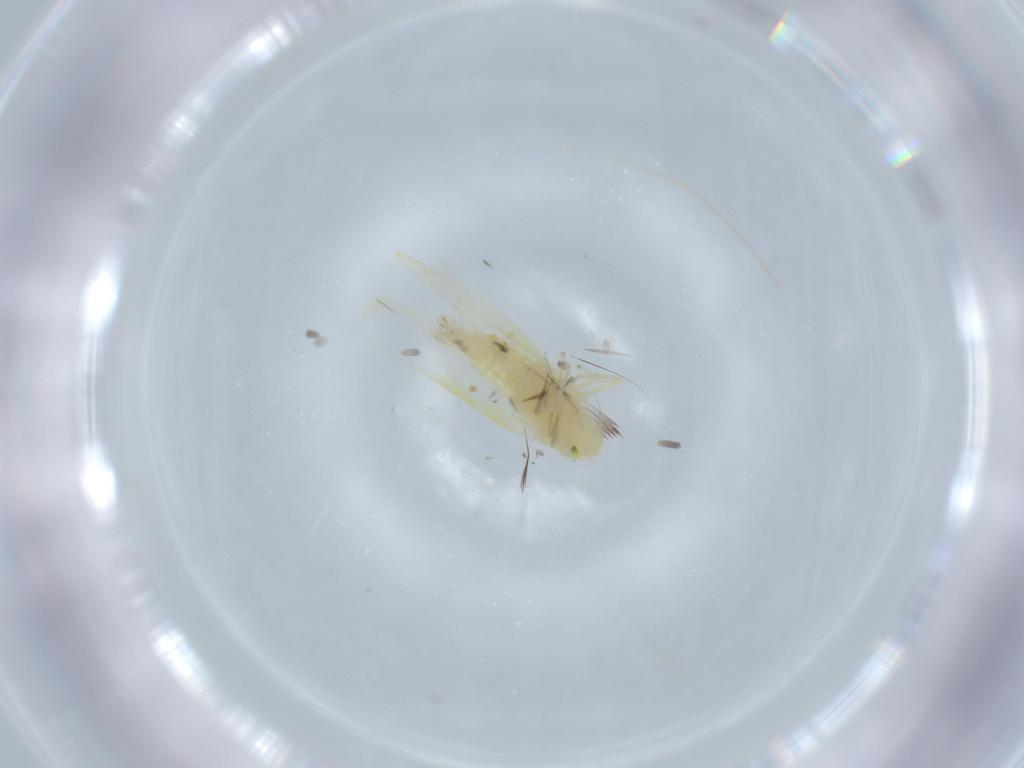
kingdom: Animalia
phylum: Arthropoda
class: Insecta
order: Hemiptera
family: Cicadellidae
